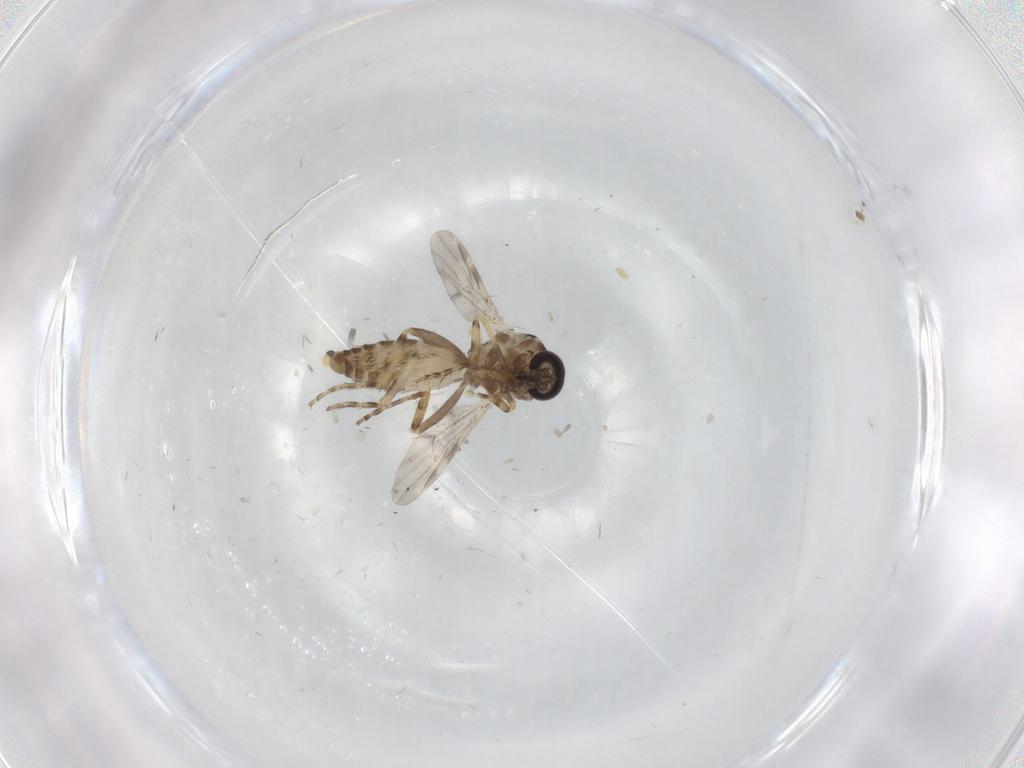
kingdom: Animalia
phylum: Arthropoda
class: Insecta
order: Diptera
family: Ceratopogonidae
